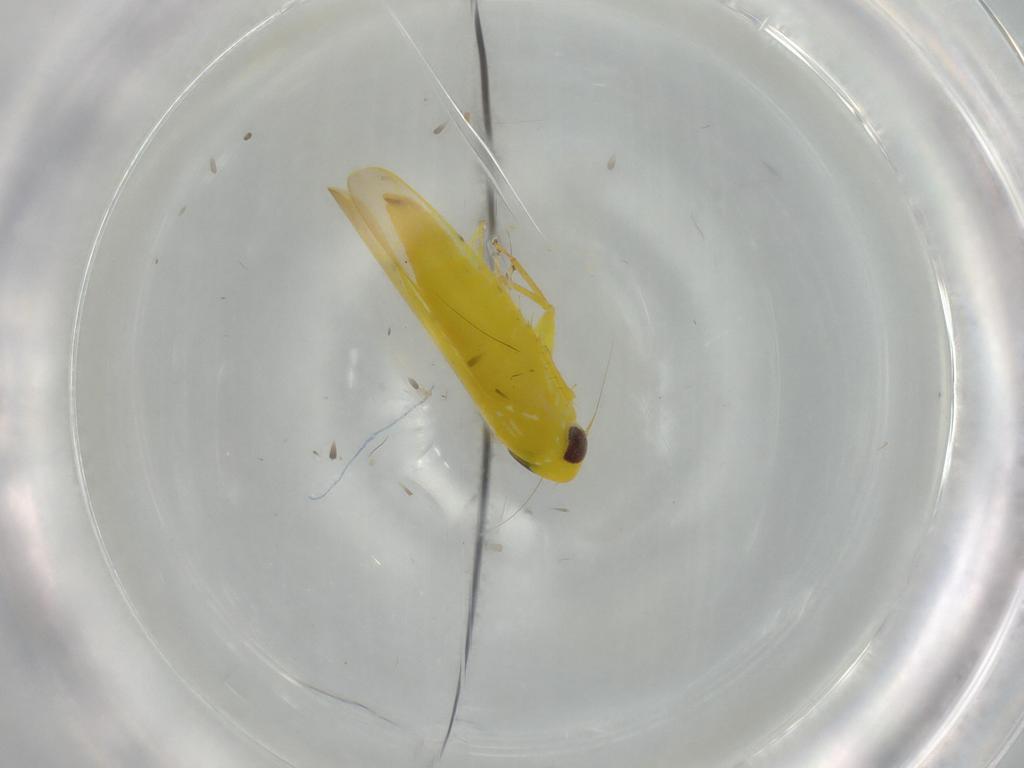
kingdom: Animalia
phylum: Arthropoda
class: Insecta
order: Hemiptera
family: Cicadellidae
